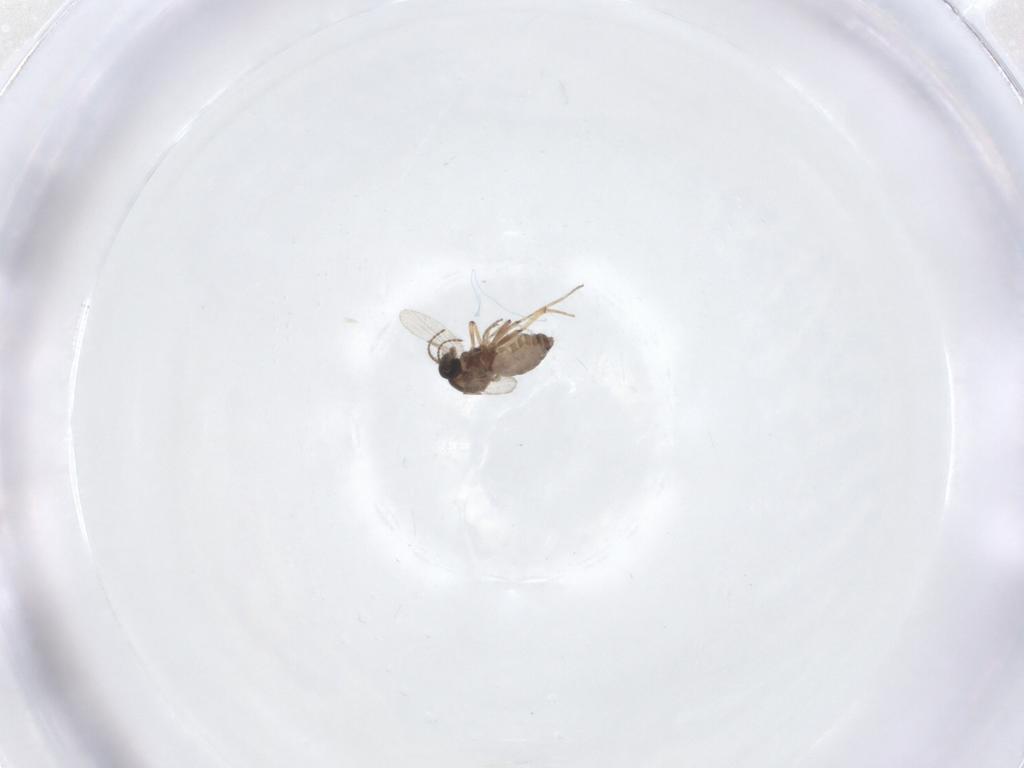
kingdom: Animalia
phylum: Arthropoda
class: Insecta
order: Diptera
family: Ceratopogonidae
